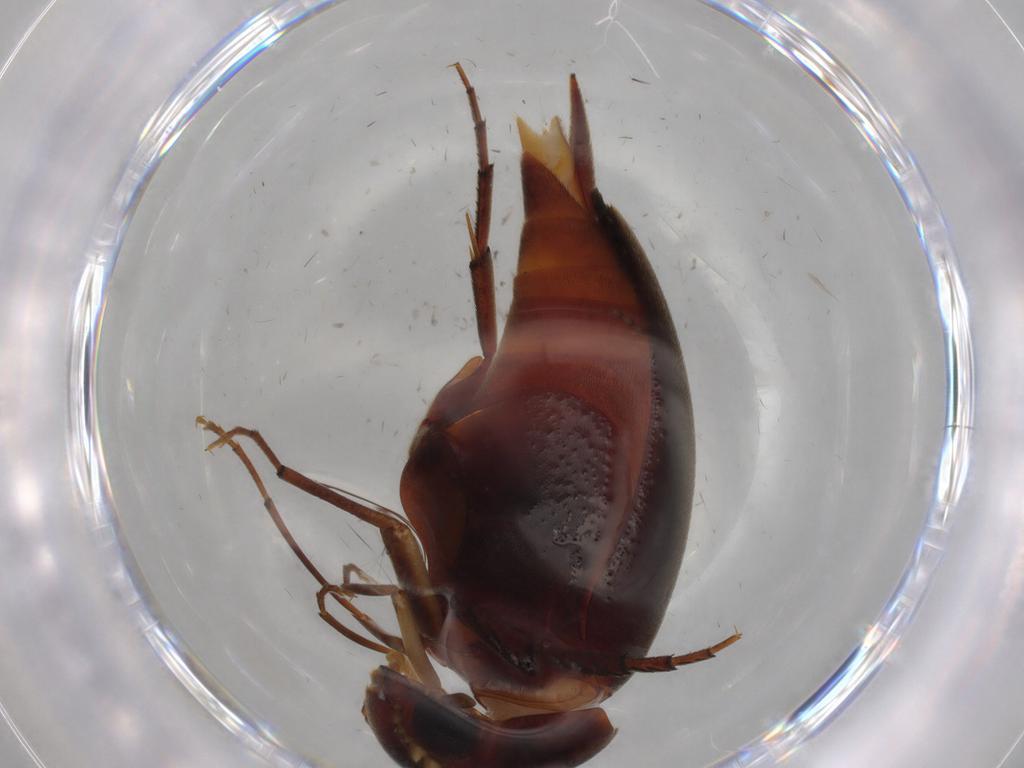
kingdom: Animalia
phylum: Arthropoda
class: Insecta
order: Coleoptera
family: Mordellidae
